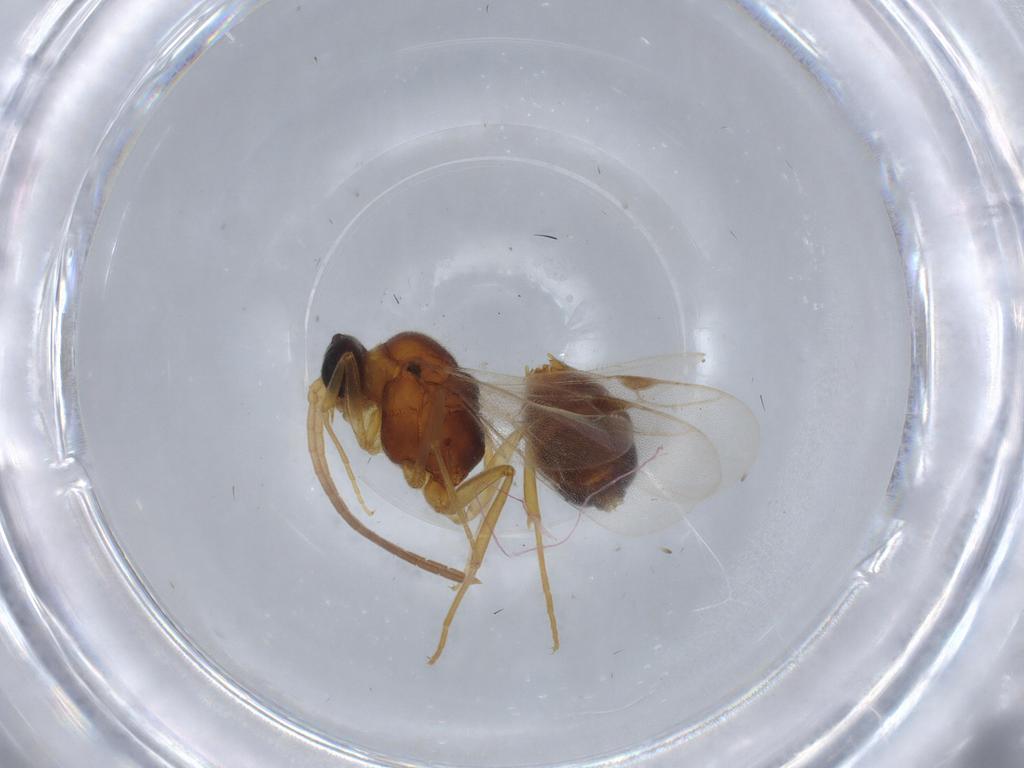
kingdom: Animalia
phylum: Arthropoda
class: Insecta
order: Hymenoptera
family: Formicidae
